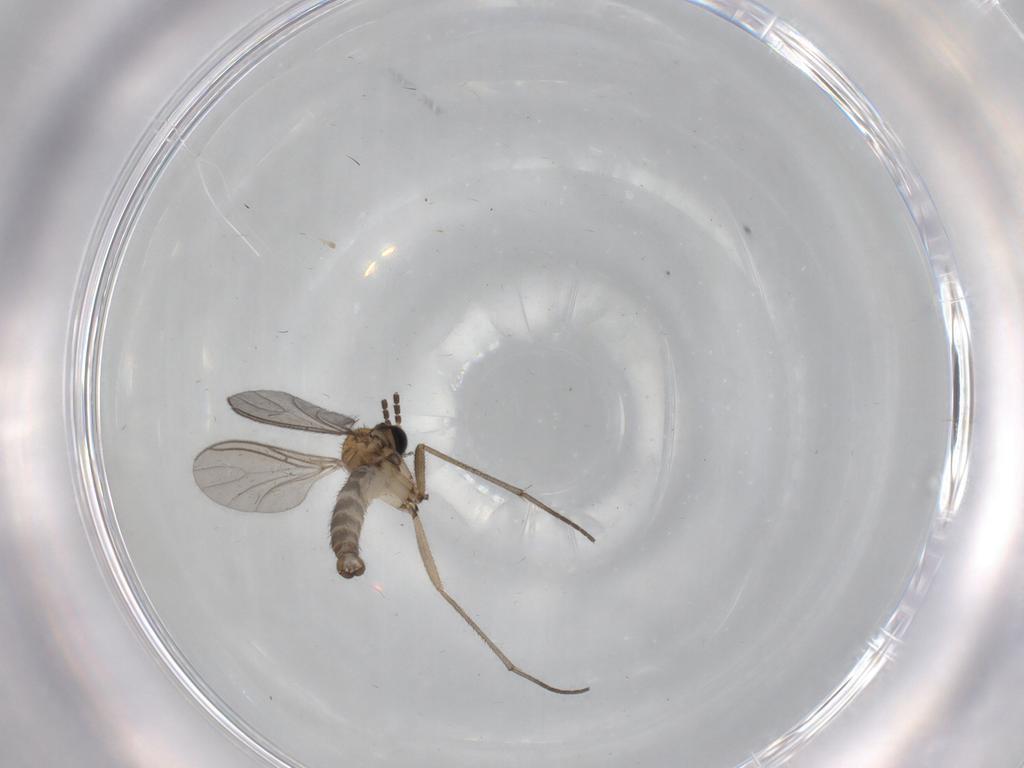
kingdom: Animalia
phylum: Arthropoda
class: Insecta
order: Diptera
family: Sciaridae
